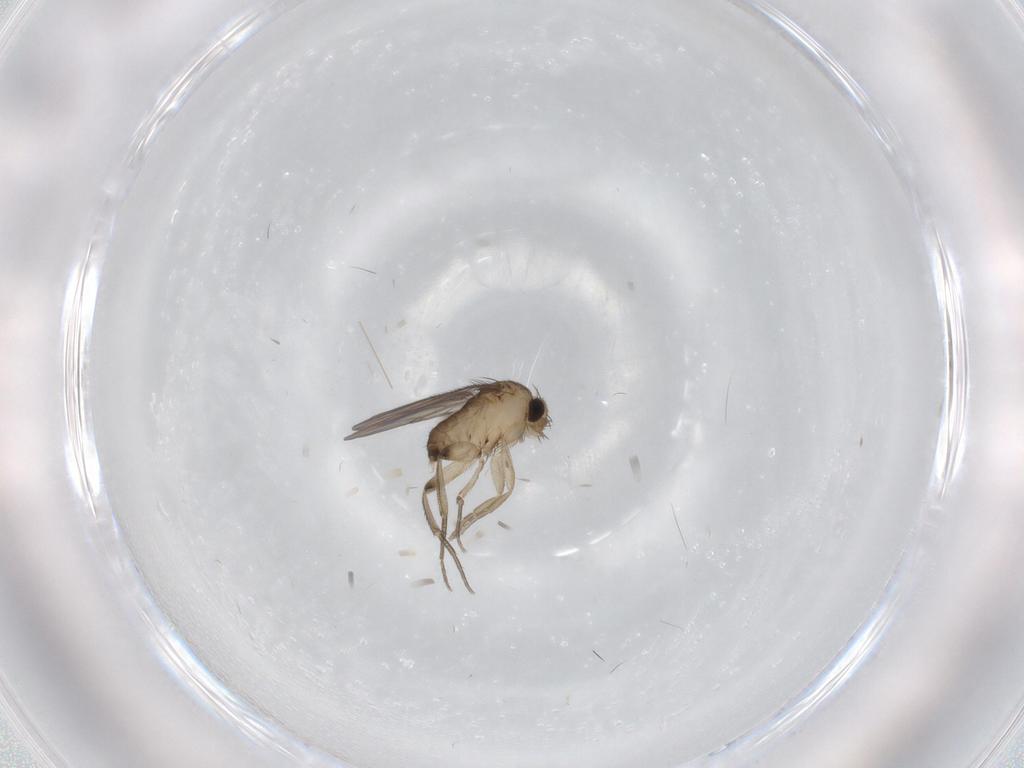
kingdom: Animalia
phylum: Arthropoda
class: Insecta
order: Diptera
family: Phoridae
